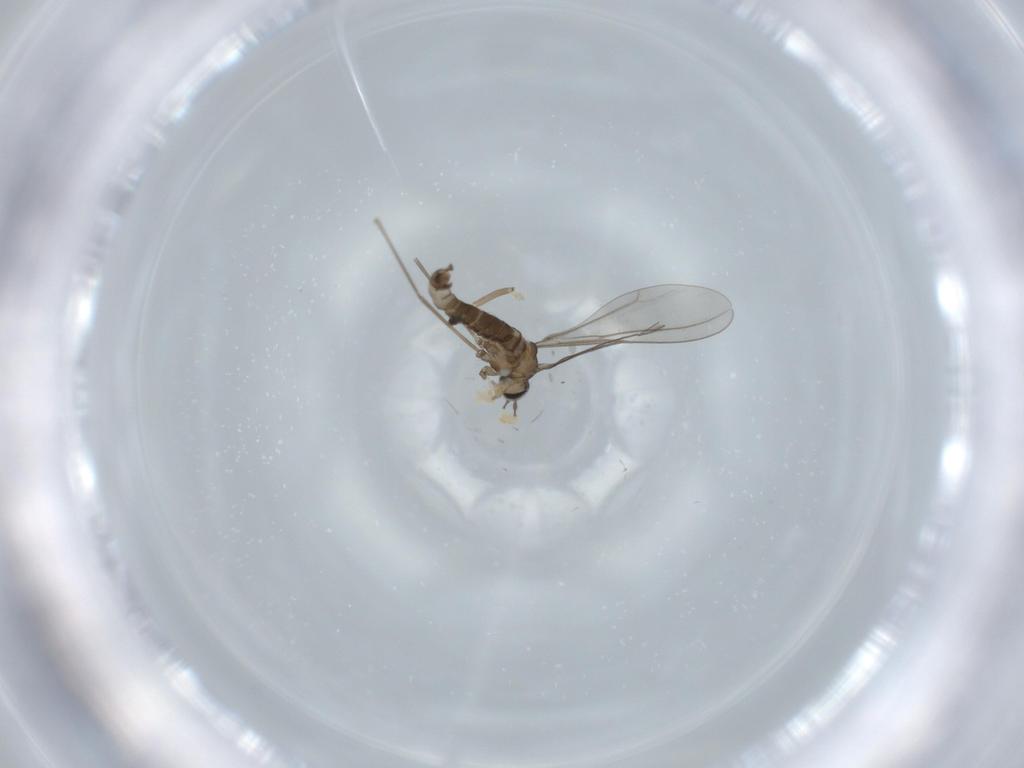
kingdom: Animalia
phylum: Arthropoda
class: Insecta
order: Diptera
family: Cecidomyiidae
